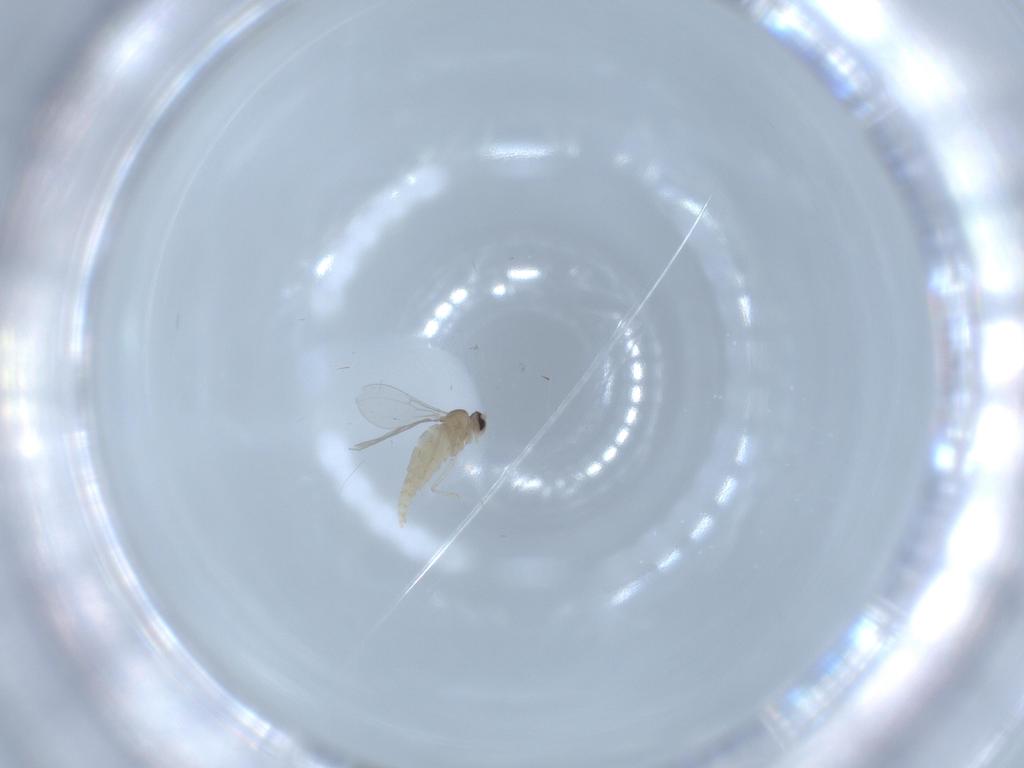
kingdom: Animalia
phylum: Arthropoda
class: Insecta
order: Diptera
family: Cecidomyiidae
